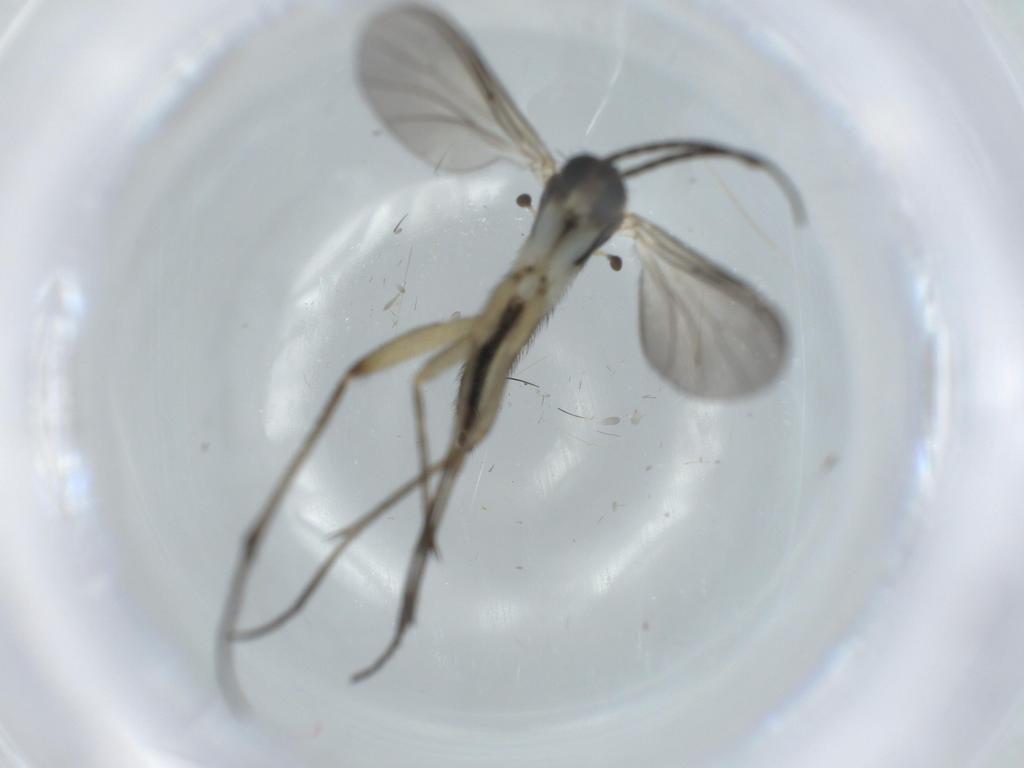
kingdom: Animalia
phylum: Arthropoda
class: Insecta
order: Diptera
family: Sciaridae
